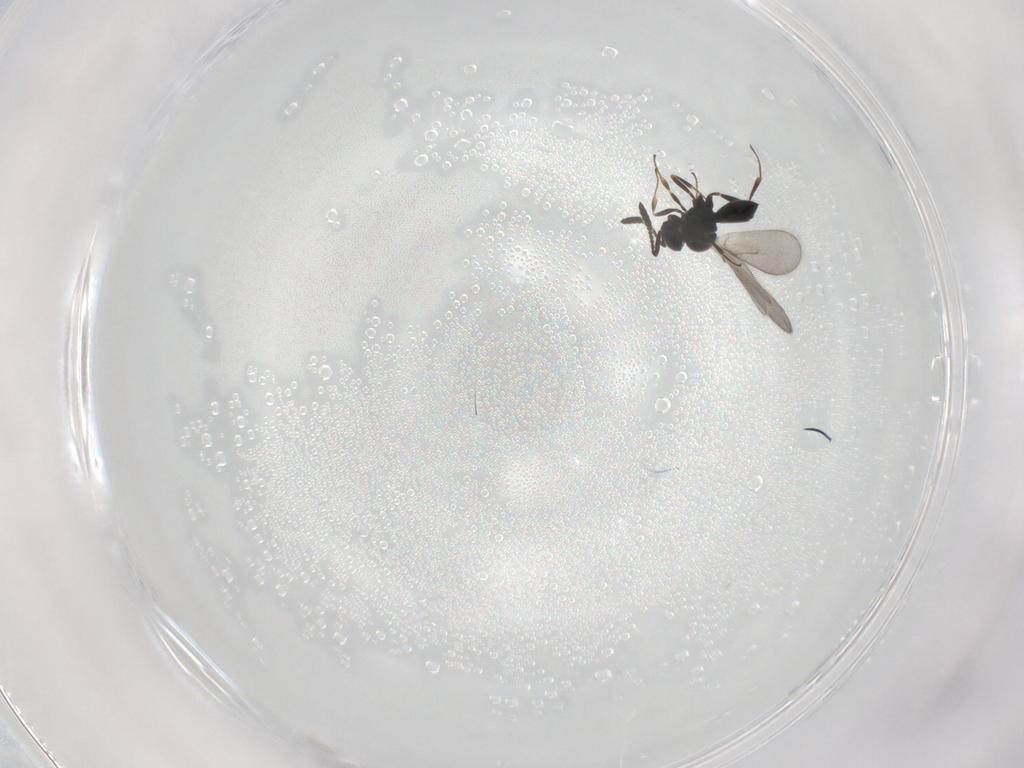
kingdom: Animalia
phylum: Arthropoda
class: Insecta
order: Hymenoptera
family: Scelionidae
